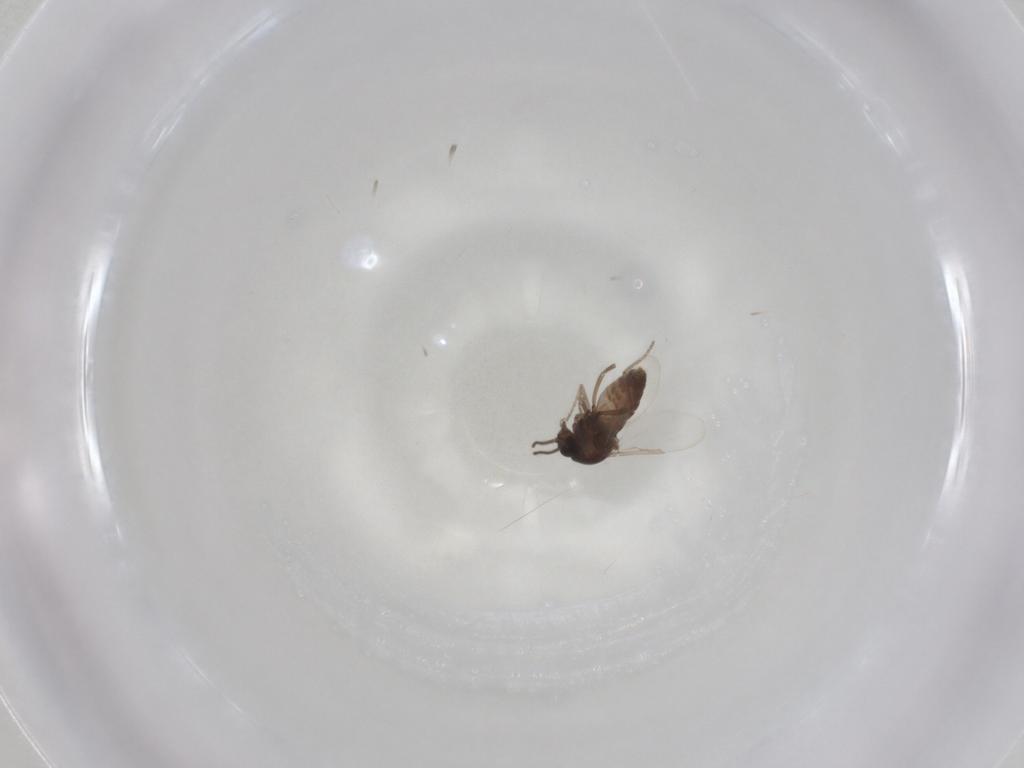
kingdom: Animalia
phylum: Arthropoda
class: Insecta
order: Diptera
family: Ceratopogonidae
